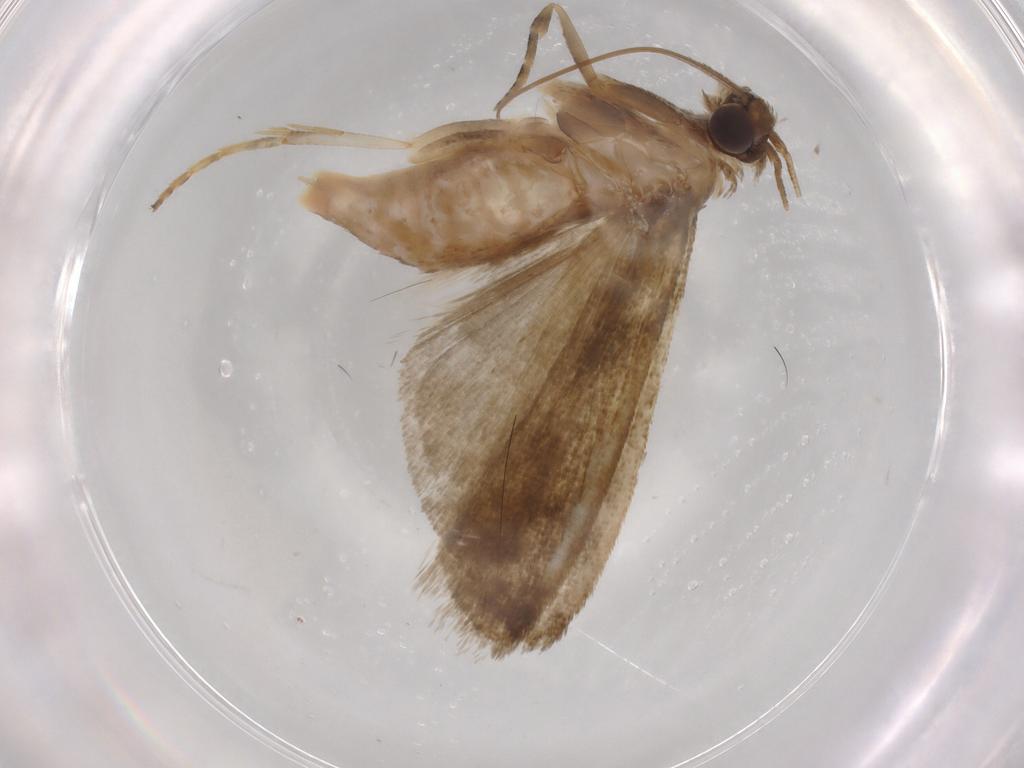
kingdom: Animalia
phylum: Arthropoda
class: Insecta
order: Lepidoptera
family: Noctuidae
